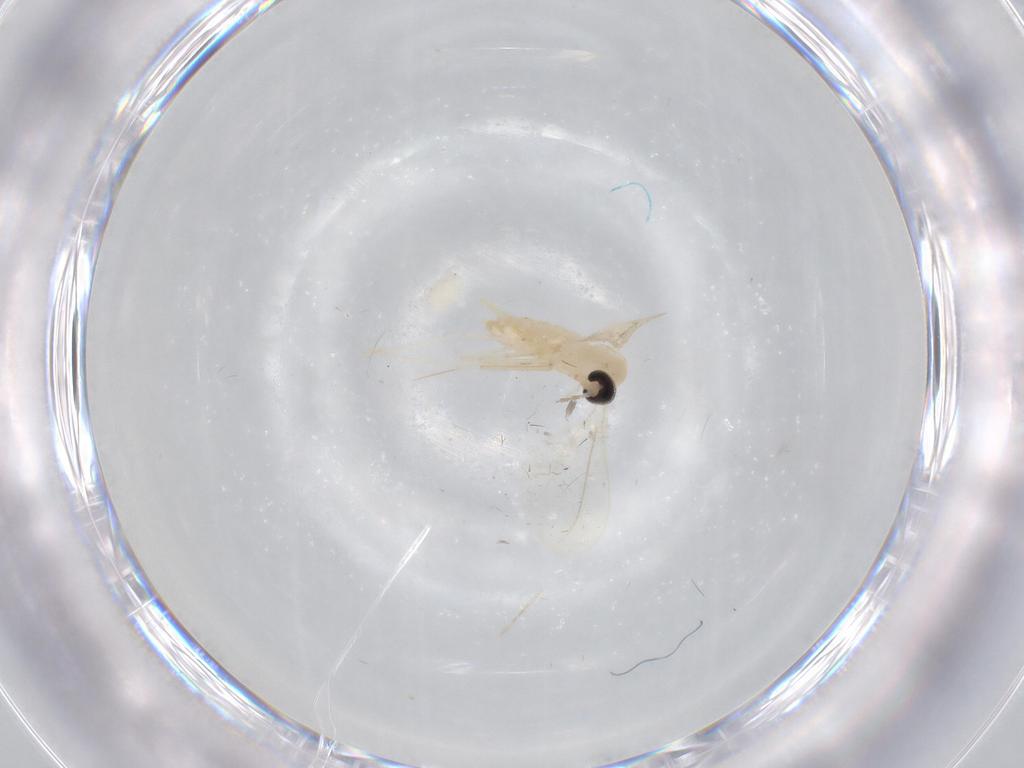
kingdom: Animalia
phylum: Arthropoda
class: Insecta
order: Diptera
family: Cecidomyiidae
